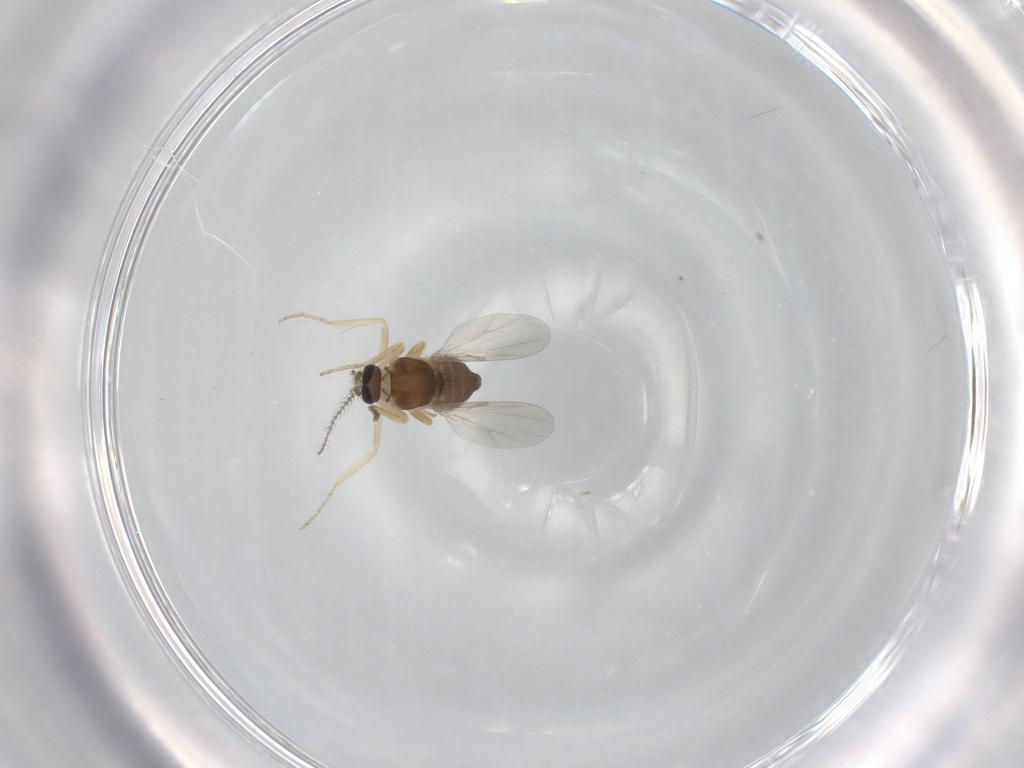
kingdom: Animalia
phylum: Arthropoda
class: Insecta
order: Diptera
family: Ceratopogonidae
